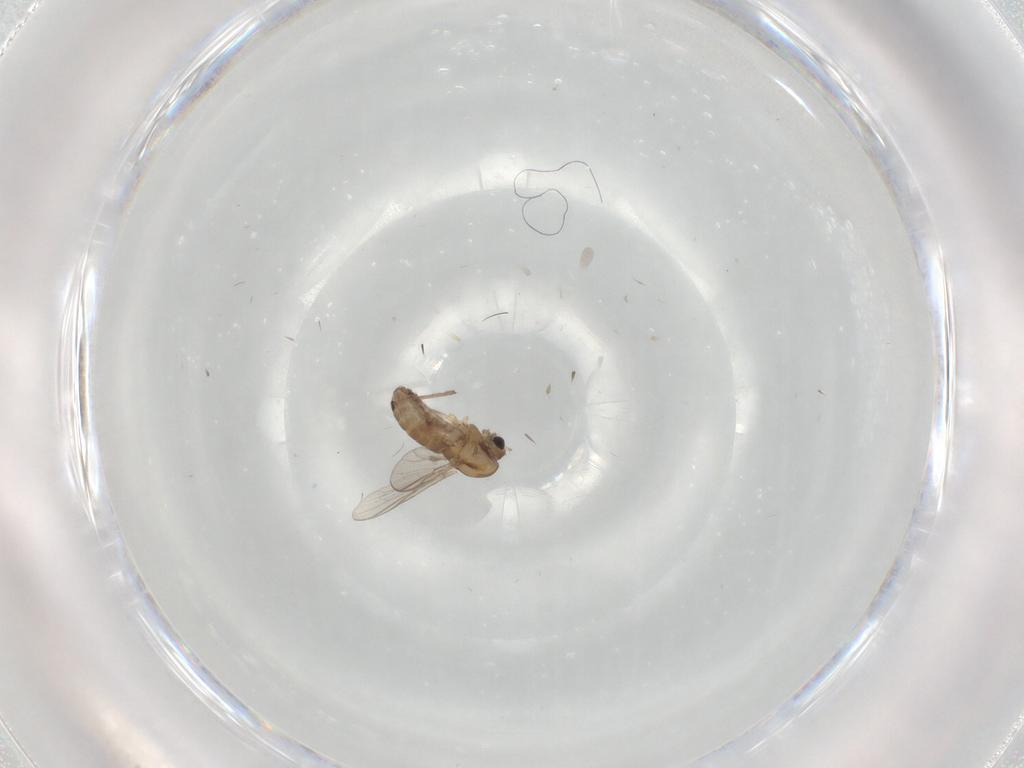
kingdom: Animalia
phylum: Arthropoda
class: Insecta
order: Diptera
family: Chironomidae
